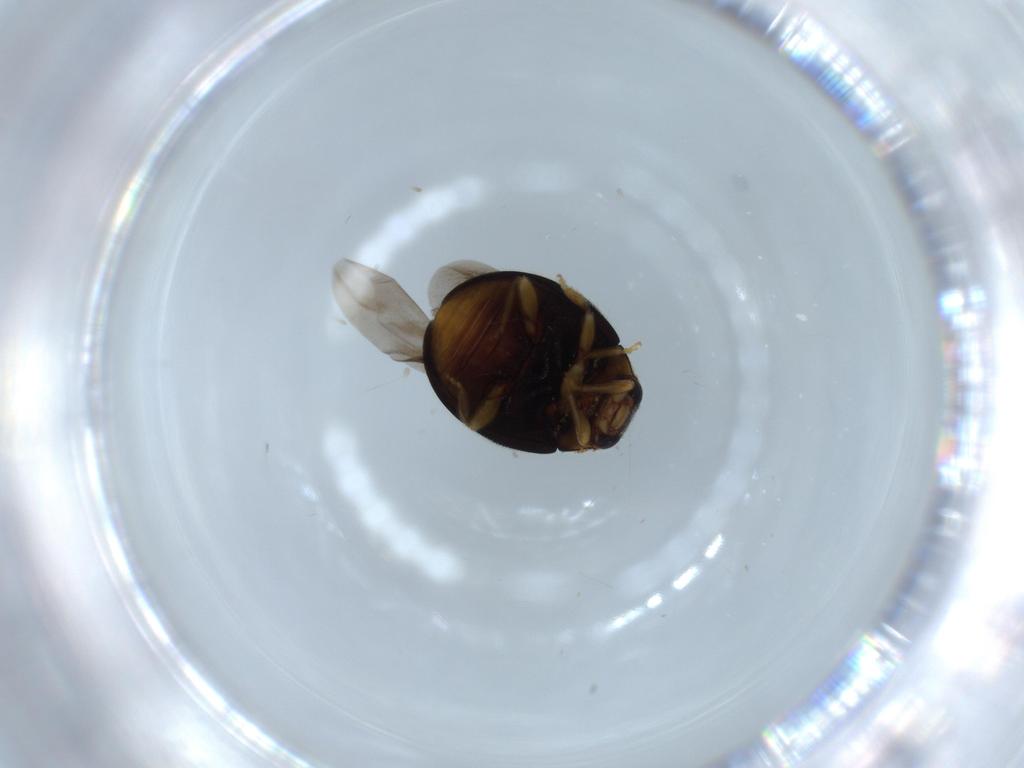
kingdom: Animalia
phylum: Arthropoda
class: Insecta
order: Coleoptera
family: Coccinellidae
